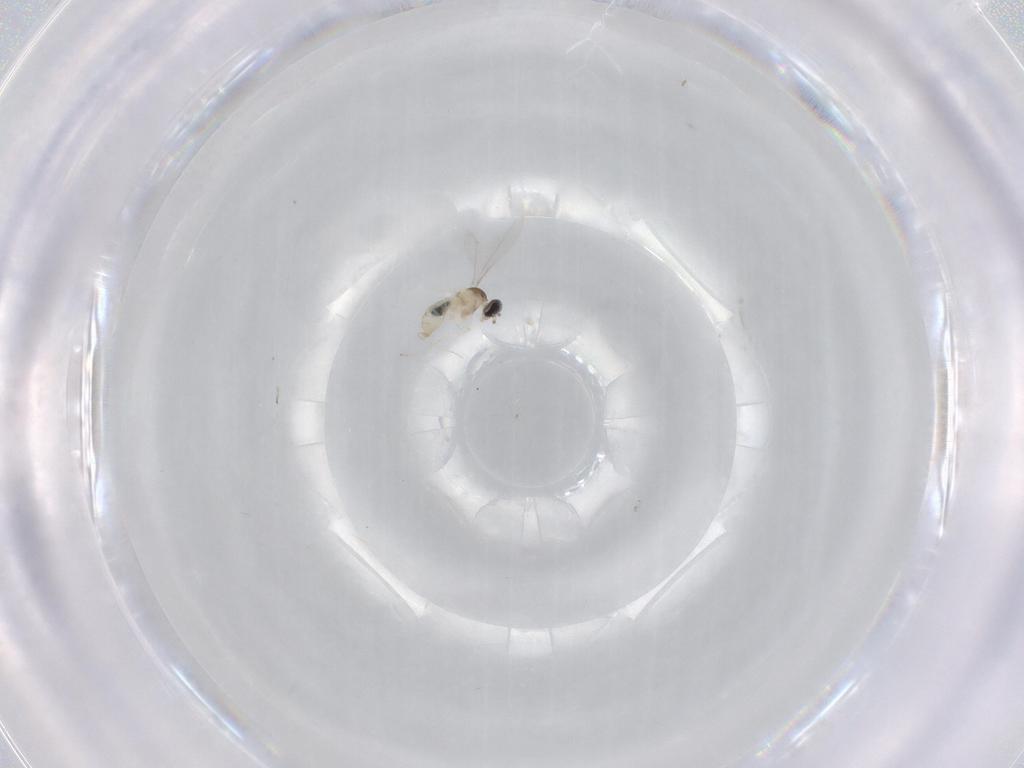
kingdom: Animalia
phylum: Arthropoda
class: Insecta
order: Diptera
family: Cecidomyiidae
